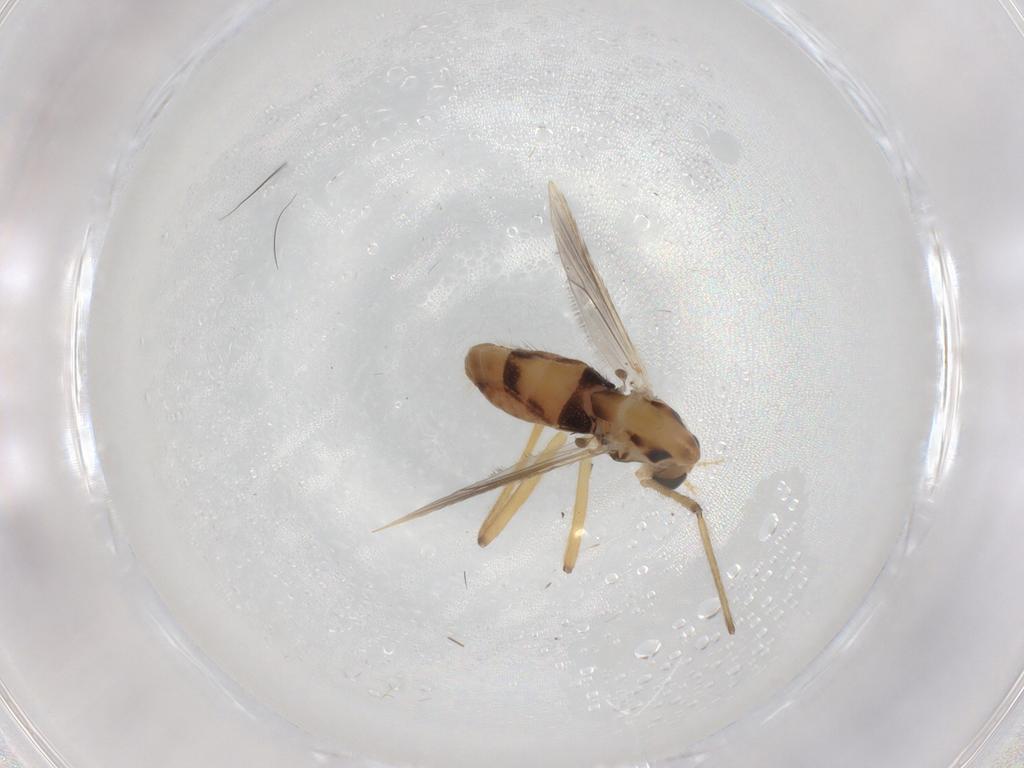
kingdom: Animalia
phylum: Arthropoda
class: Insecta
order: Diptera
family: Chironomidae
